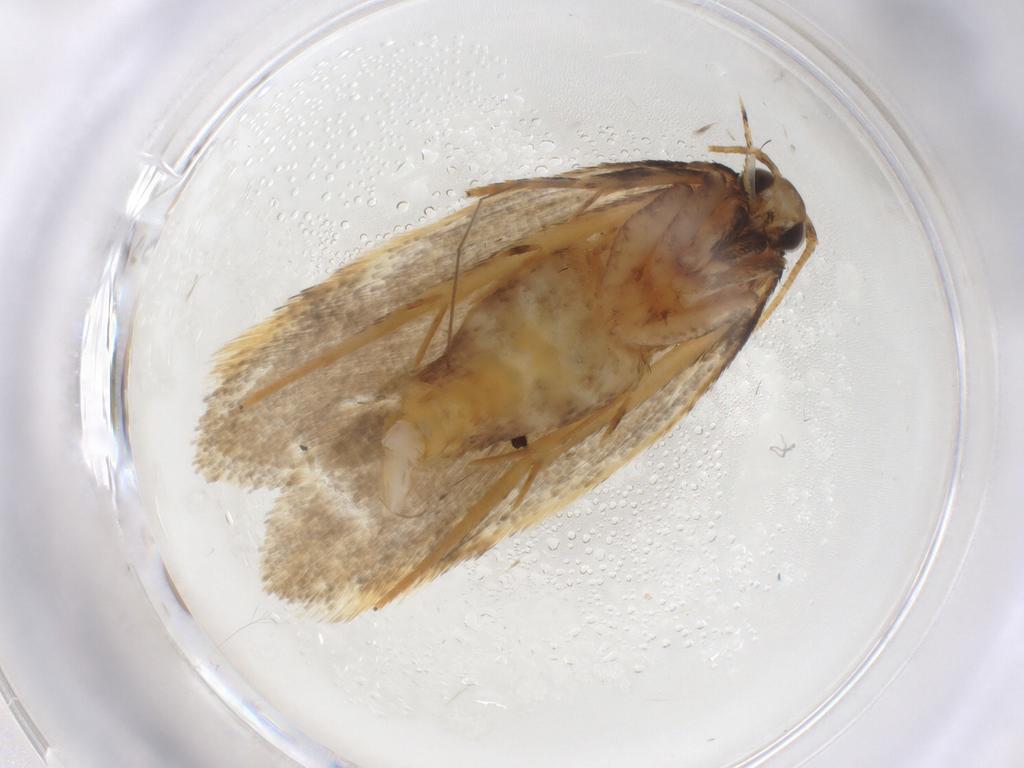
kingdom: Animalia
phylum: Arthropoda
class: Insecta
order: Lepidoptera
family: Gelechiidae
